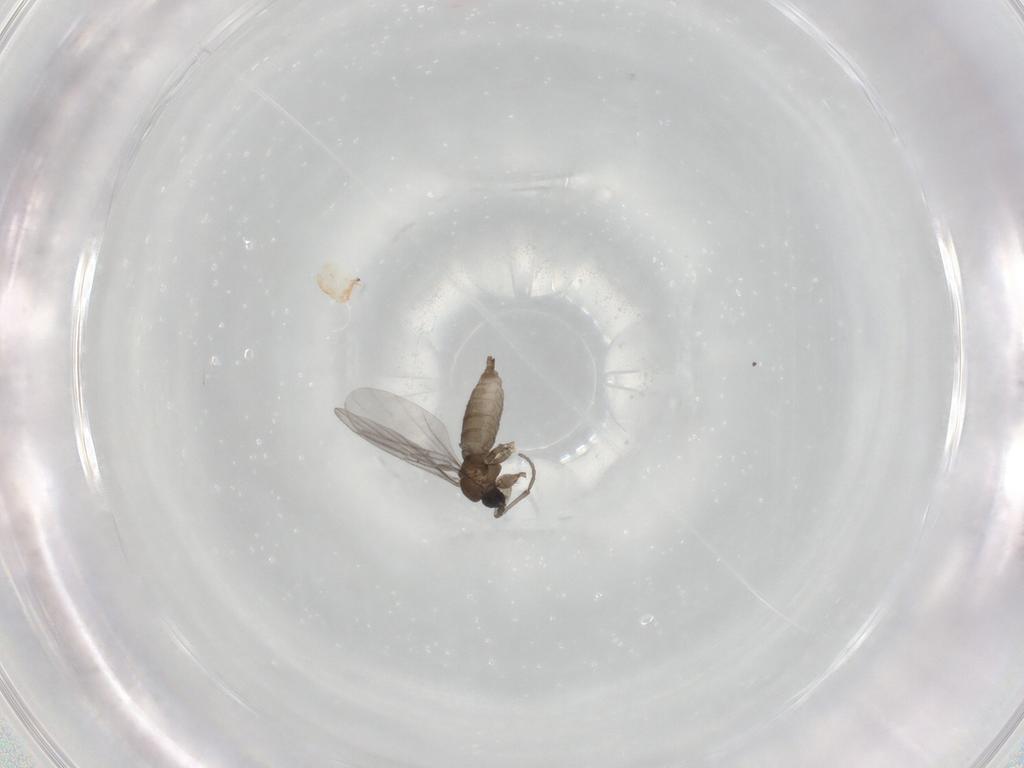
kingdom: Animalia
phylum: Arthropoda
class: Insecta
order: Diptera
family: Sciaridae
